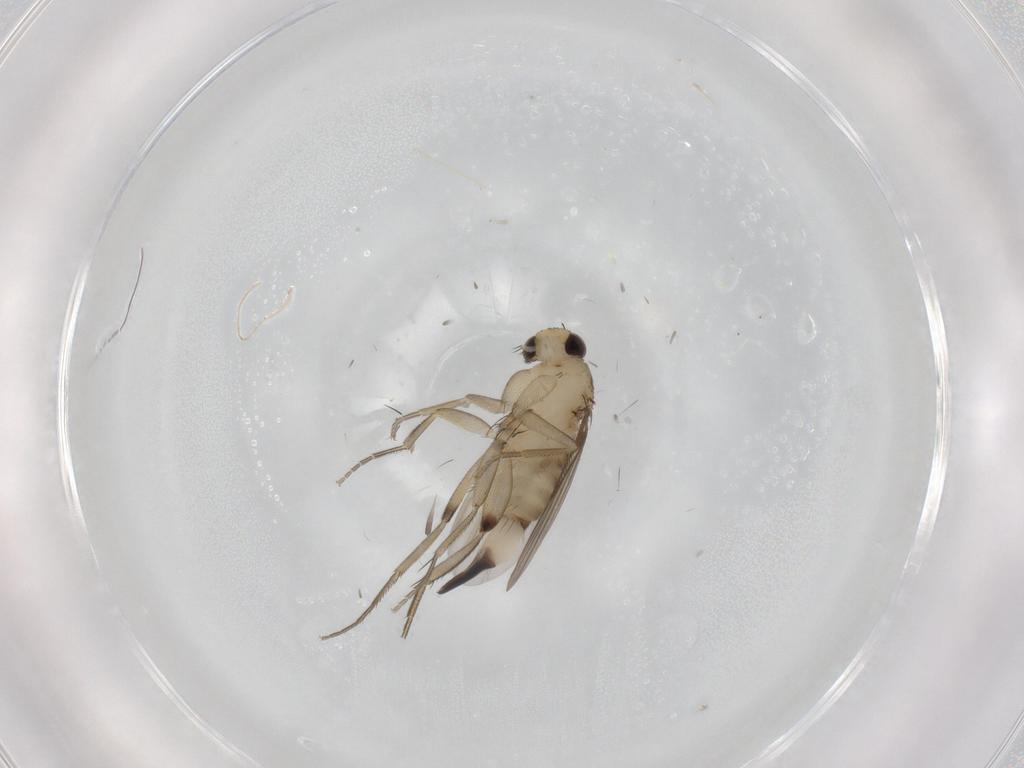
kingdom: Animalia
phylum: Arthropoda
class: Insecta
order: Diptera
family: Phoridae
